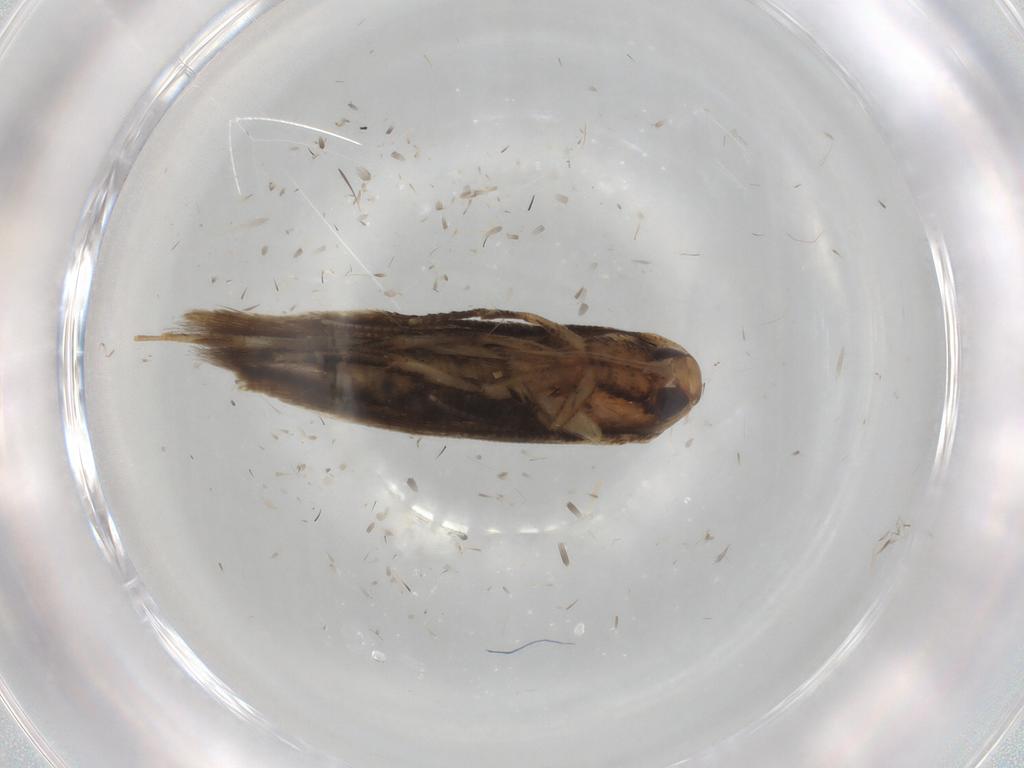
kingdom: Animalia
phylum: Arthropoda
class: Insecta
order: Lepidoptera
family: Cosmopterigidae
